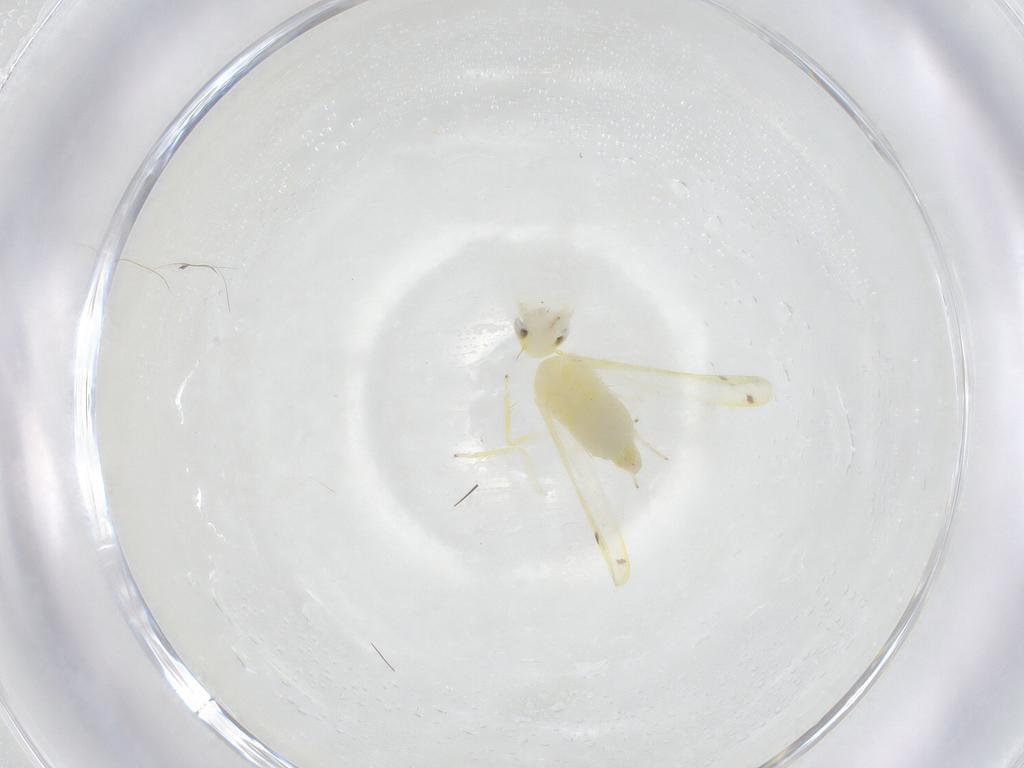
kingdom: Animalia
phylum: Arthropoda
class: Insecta
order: Hemiptera
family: Cicadellidae
